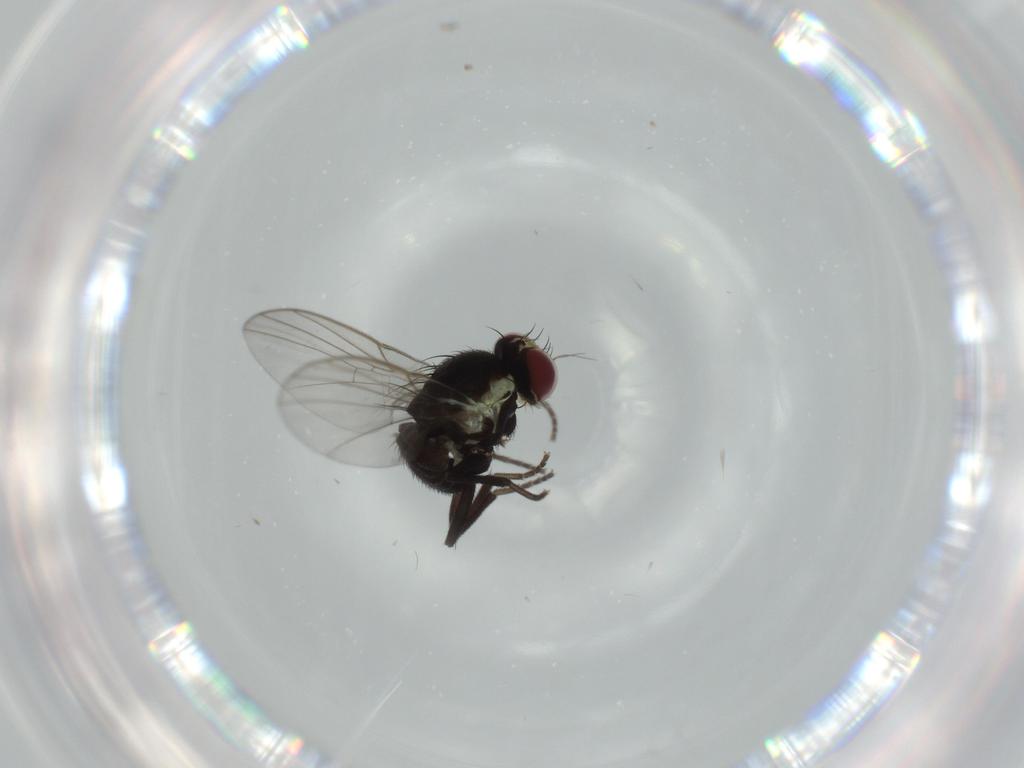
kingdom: Animalia
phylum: Arthropoda
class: Insecta
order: Diptera
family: Agromyzidae
